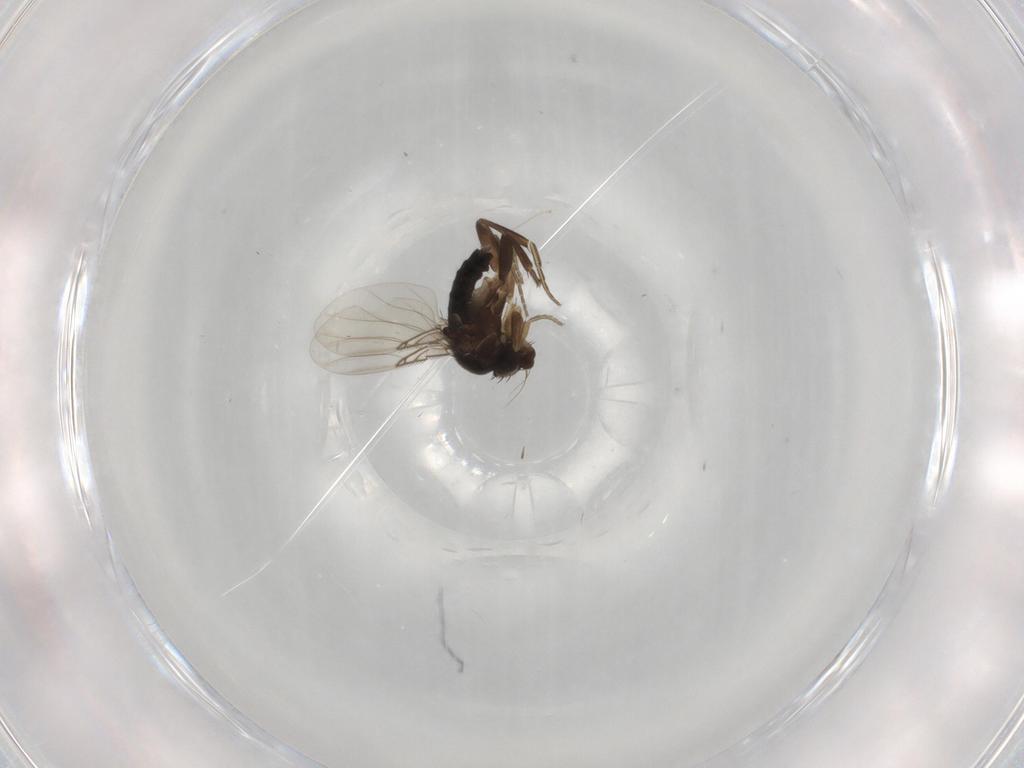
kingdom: Animalia
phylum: Arthropoda
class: Insecta
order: Diptera
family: Phoridae
